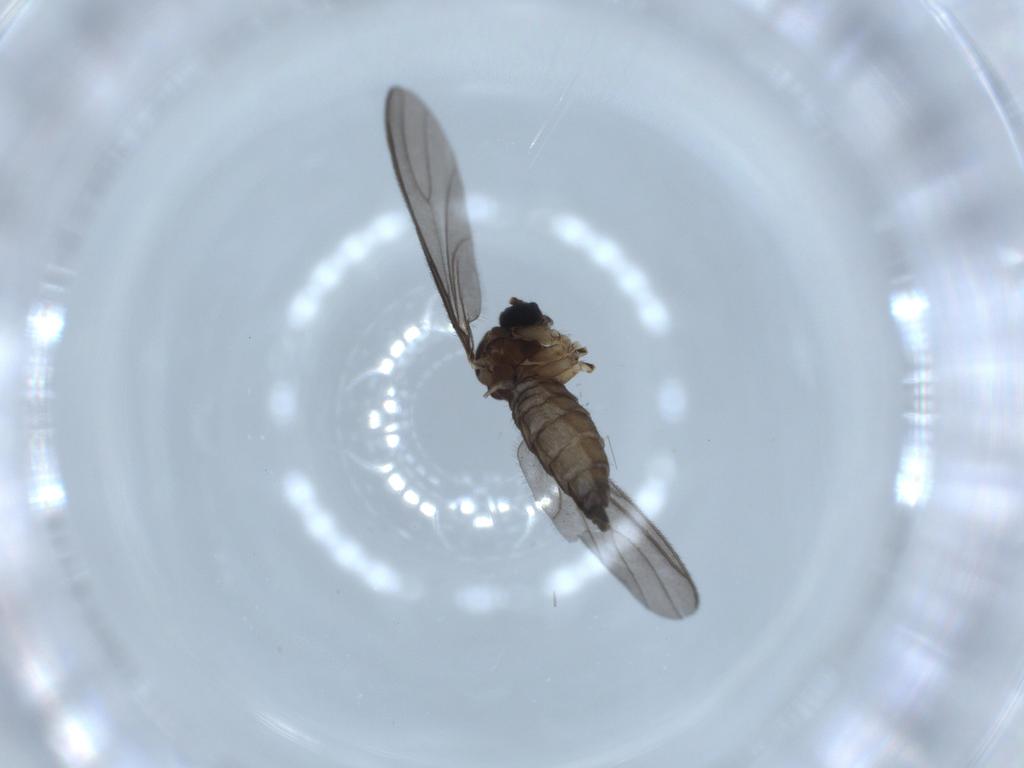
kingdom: Animalia
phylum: Arthropoda
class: Insecta
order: Diptera
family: Sciaridae
